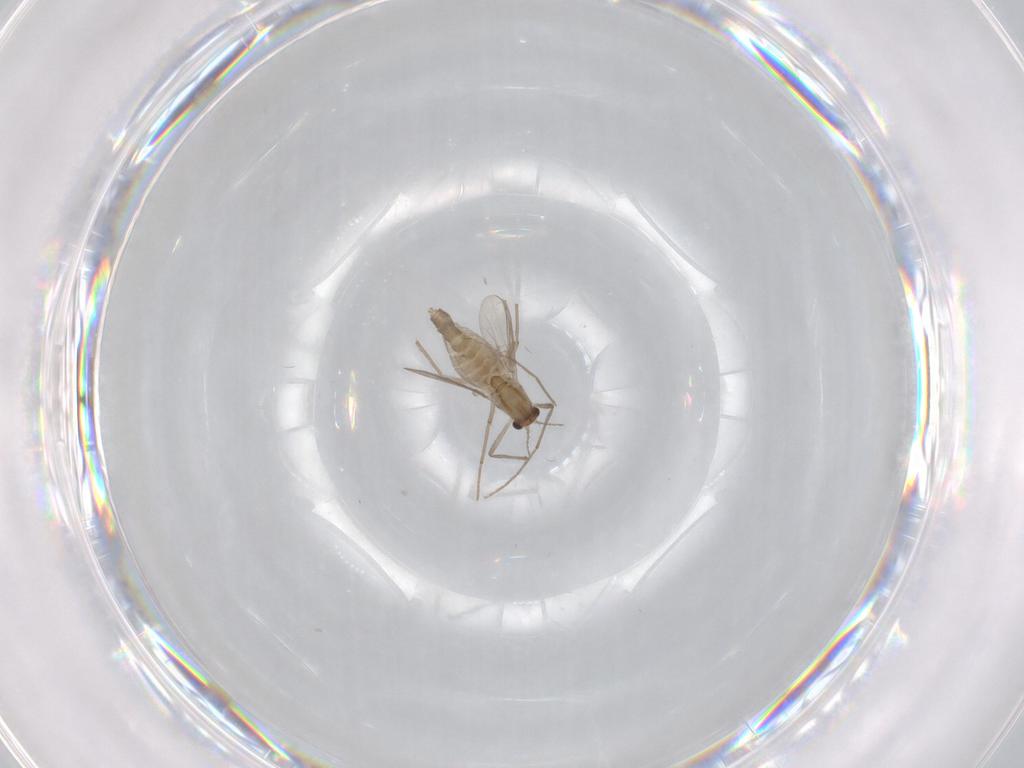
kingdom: Animalia
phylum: Arthropoda
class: Insecta
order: Diptera
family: Chironomidae
